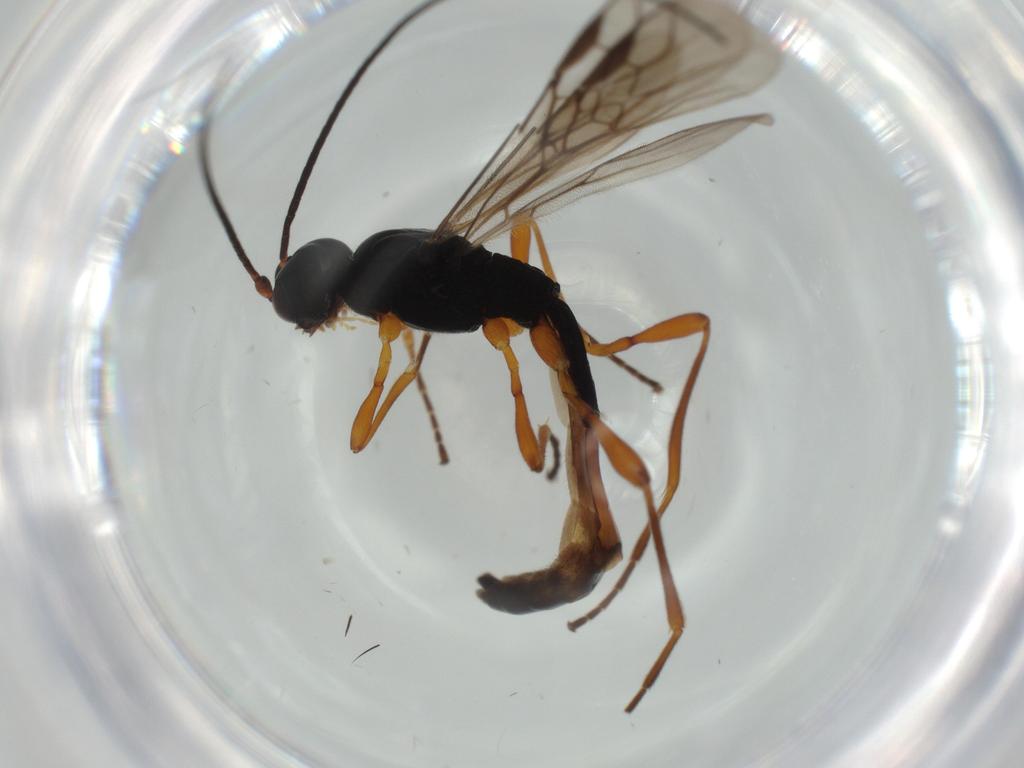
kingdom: Animalia
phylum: Arthropoda
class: Insecta
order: Hymenoptera
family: Braconidae
